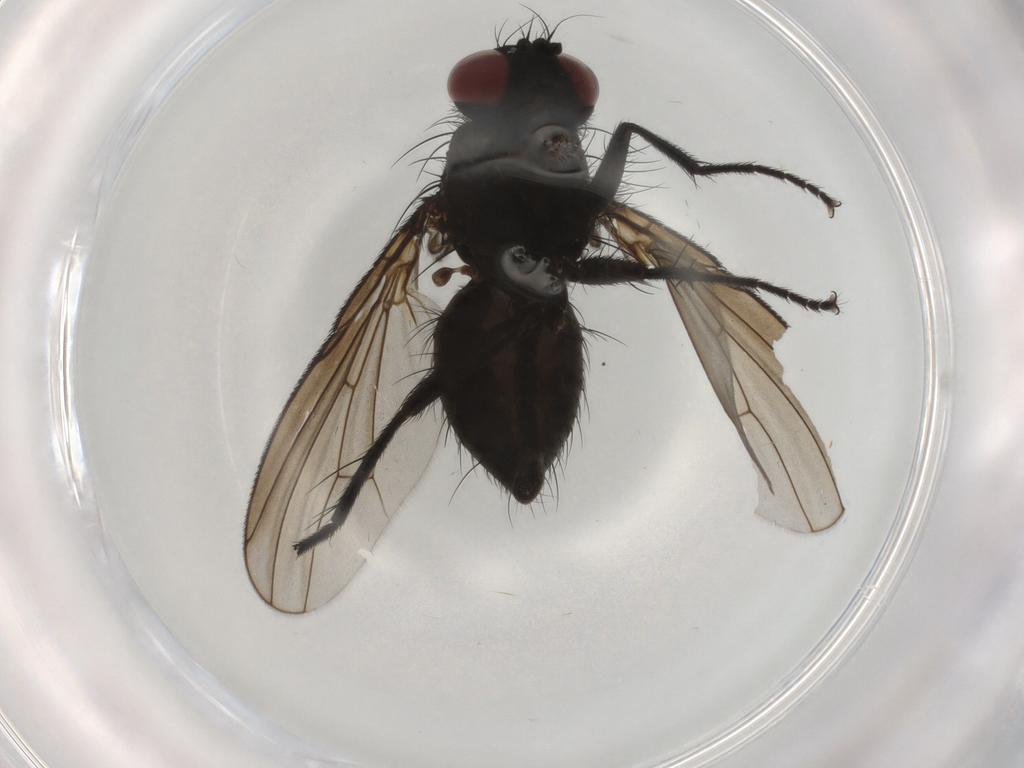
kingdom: Animalia
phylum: Arthropoda
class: Insecta
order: Diptera
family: Muscidae
